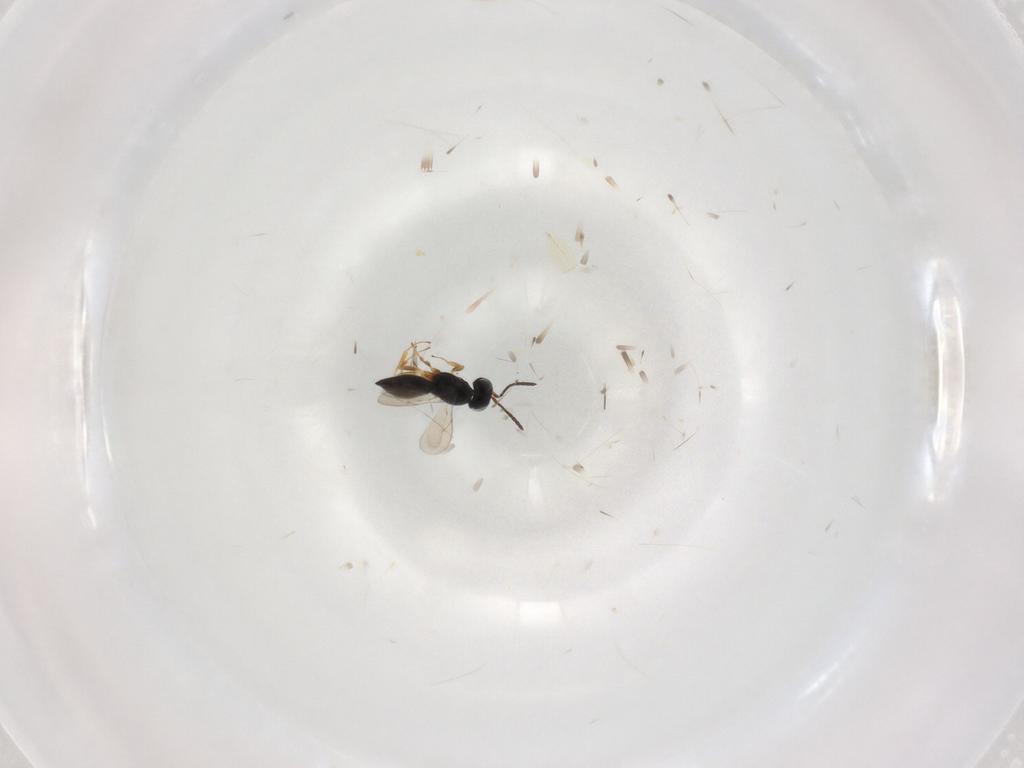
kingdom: Animalia
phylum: Arthropoda
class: Insecta
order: Hymenoptera
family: Scelionidae
